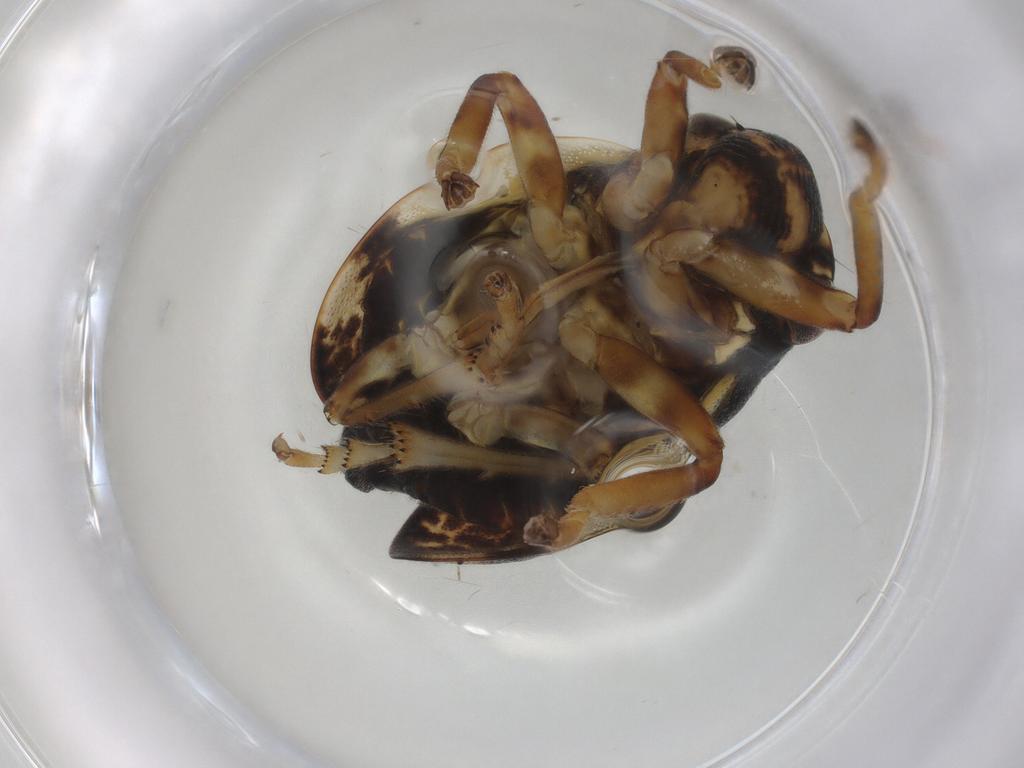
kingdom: Animalia
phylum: Arthropoda
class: Insecta
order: Hemiptera
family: Aphrophoridae
